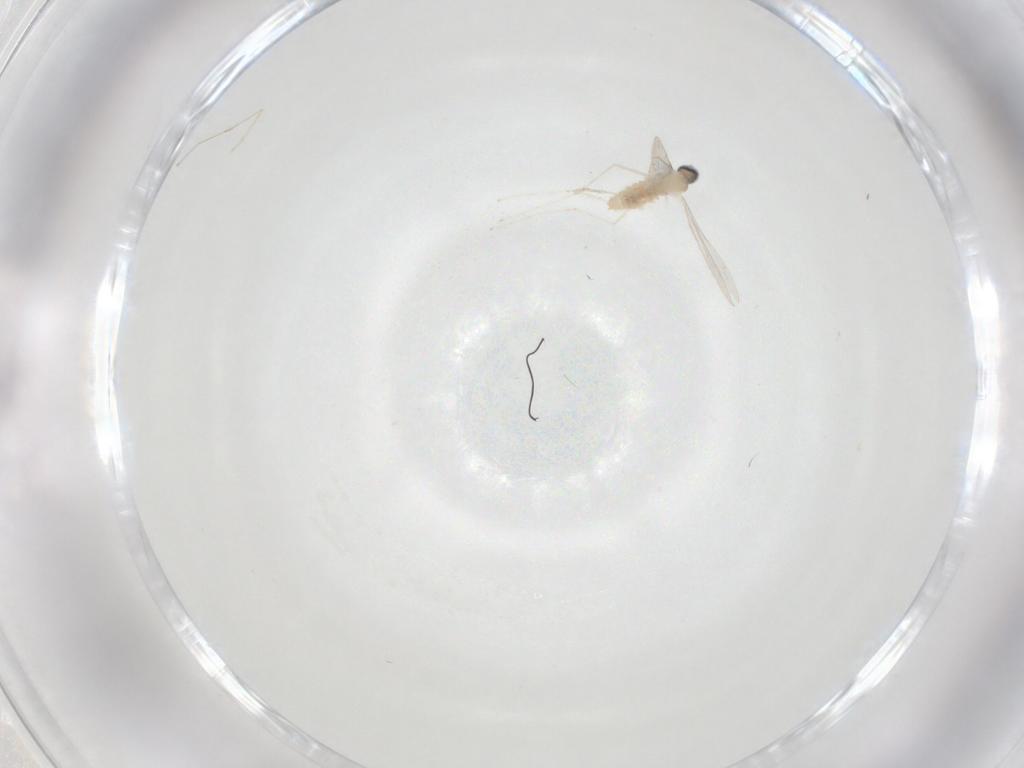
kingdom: Animalia
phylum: Arthropoda
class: Insecta
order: Diptera
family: Cecidomyiidae
